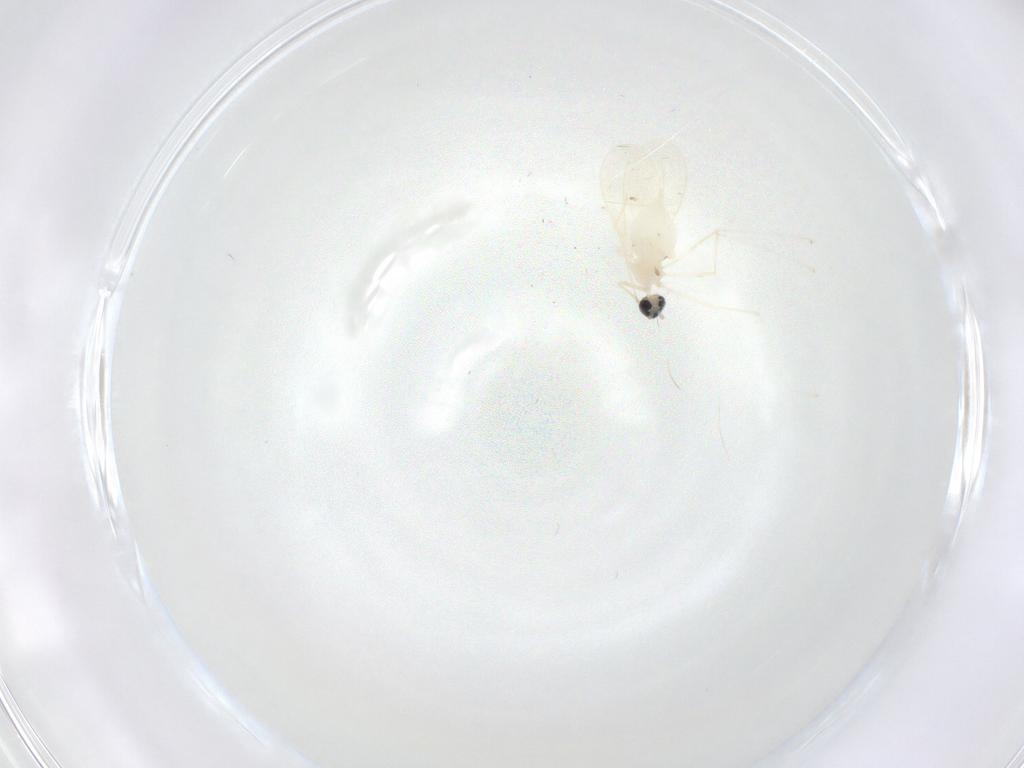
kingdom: Animalia
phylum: Arthropoda
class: Insecta
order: Diptera
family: Cecidomyiidae
